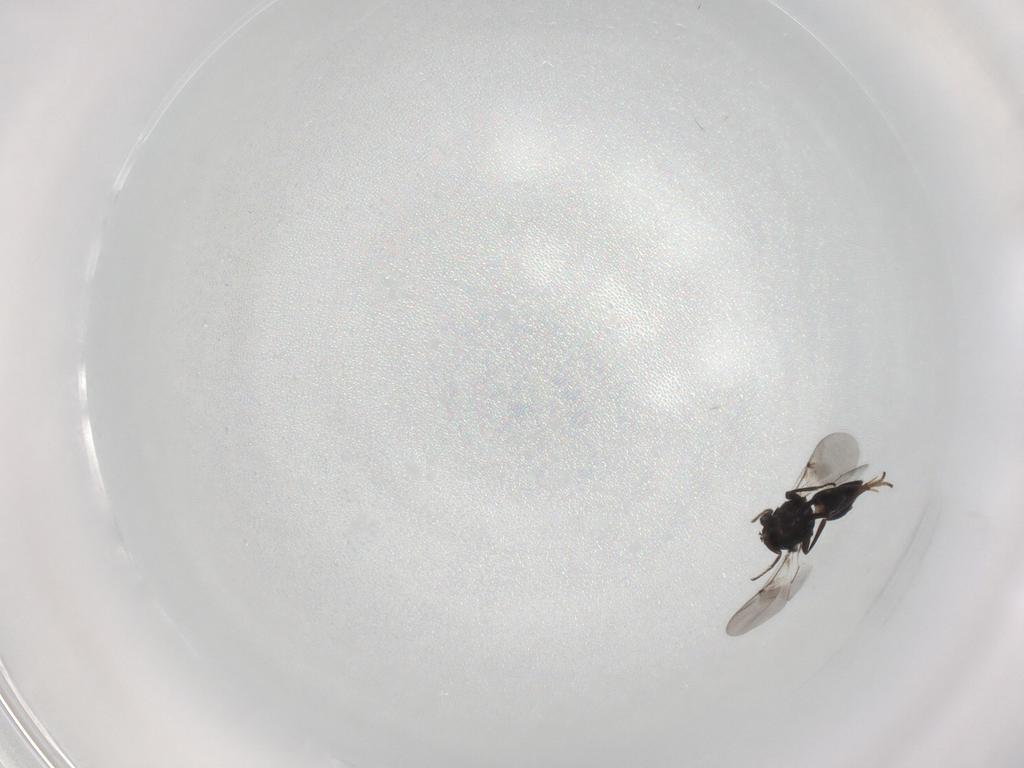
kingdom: Animalia
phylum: Arthropoda
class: Insecta
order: Hymenoptera
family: Encyrtidae
